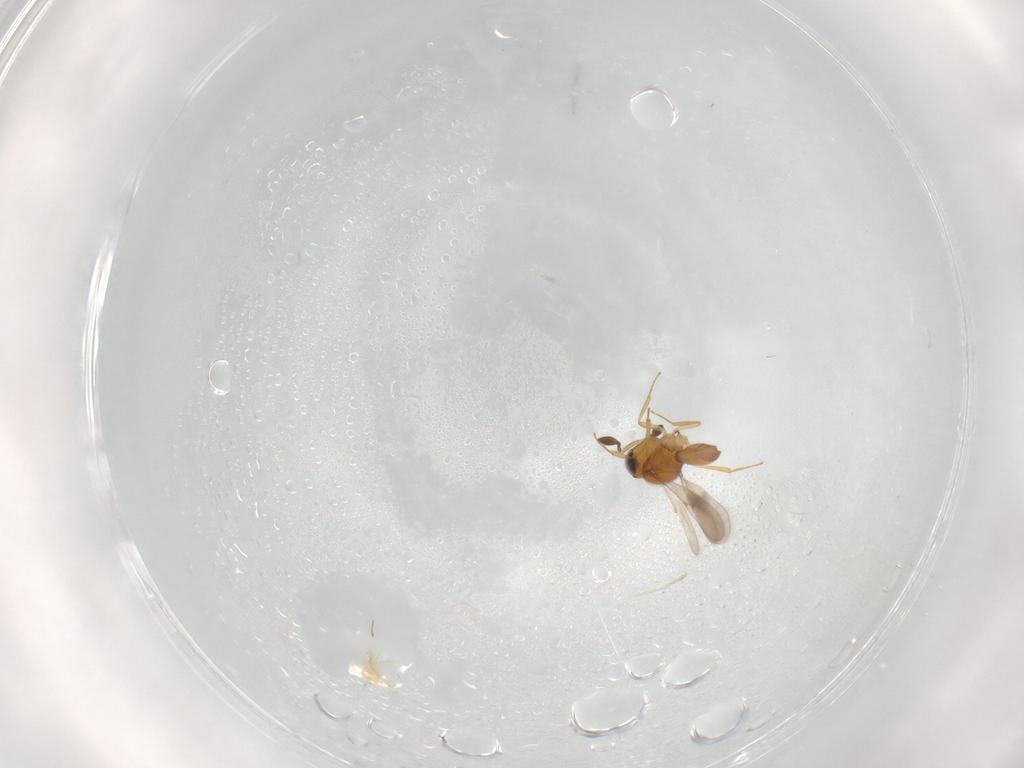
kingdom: Animalia
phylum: Arthropoda
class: Insecta
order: Hymenoptera
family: Scelionidae
